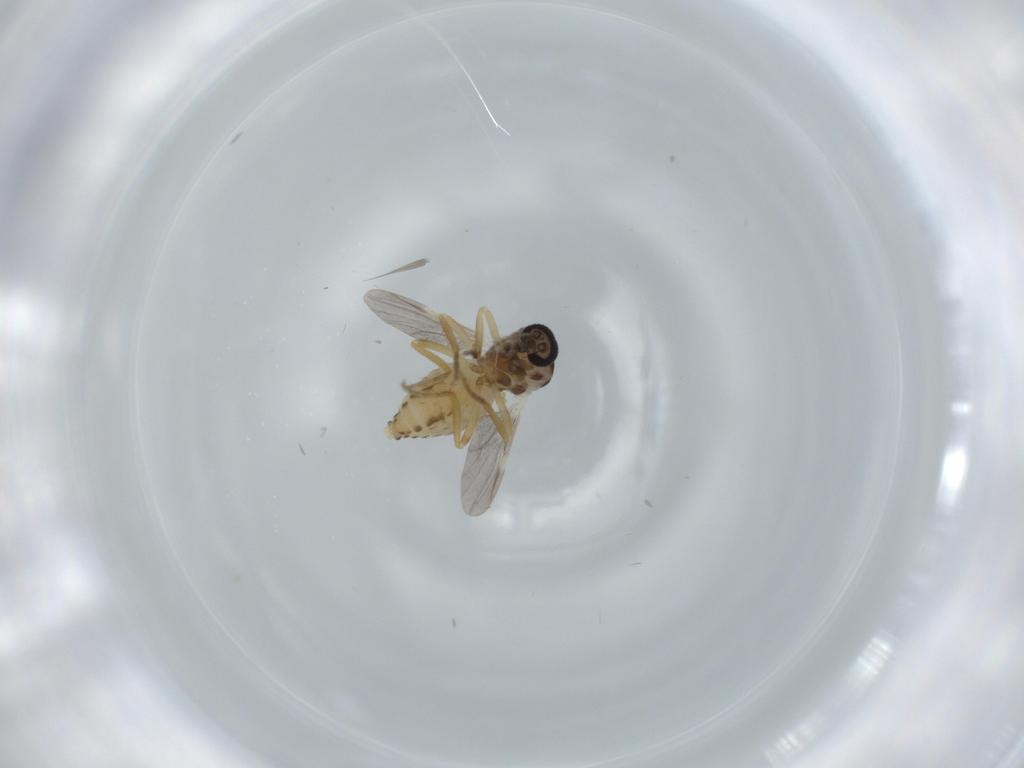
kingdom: Animalia
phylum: Arthropoda
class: Insecta
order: Diptera
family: Ceratopogonidae
